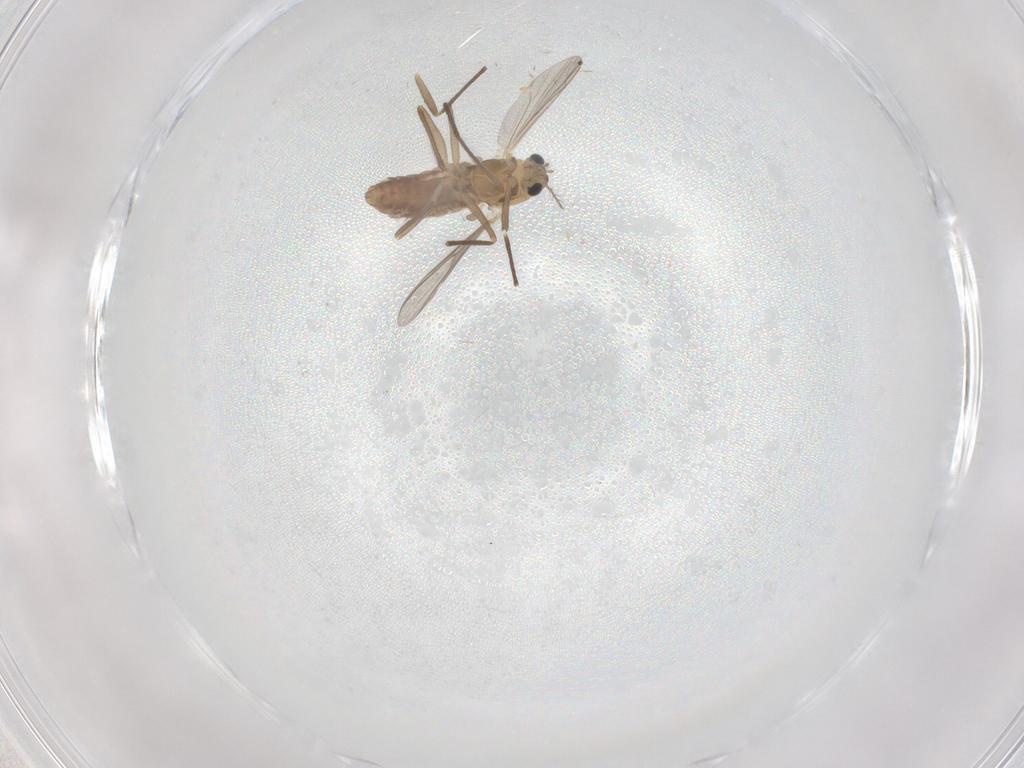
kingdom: Animalia
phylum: Arthropoda
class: Insecta
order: Diptera
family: Chironomidae
